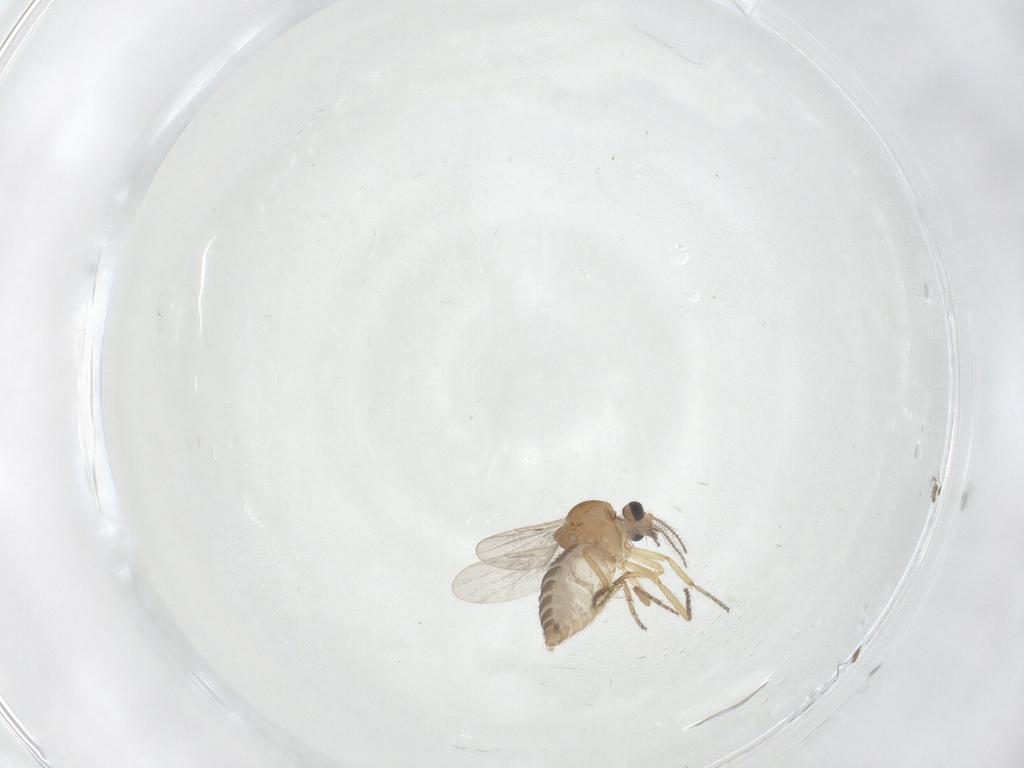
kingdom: Animalia
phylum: Arthropoda
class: Insecta
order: Diptera
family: Ceratopogonidae
